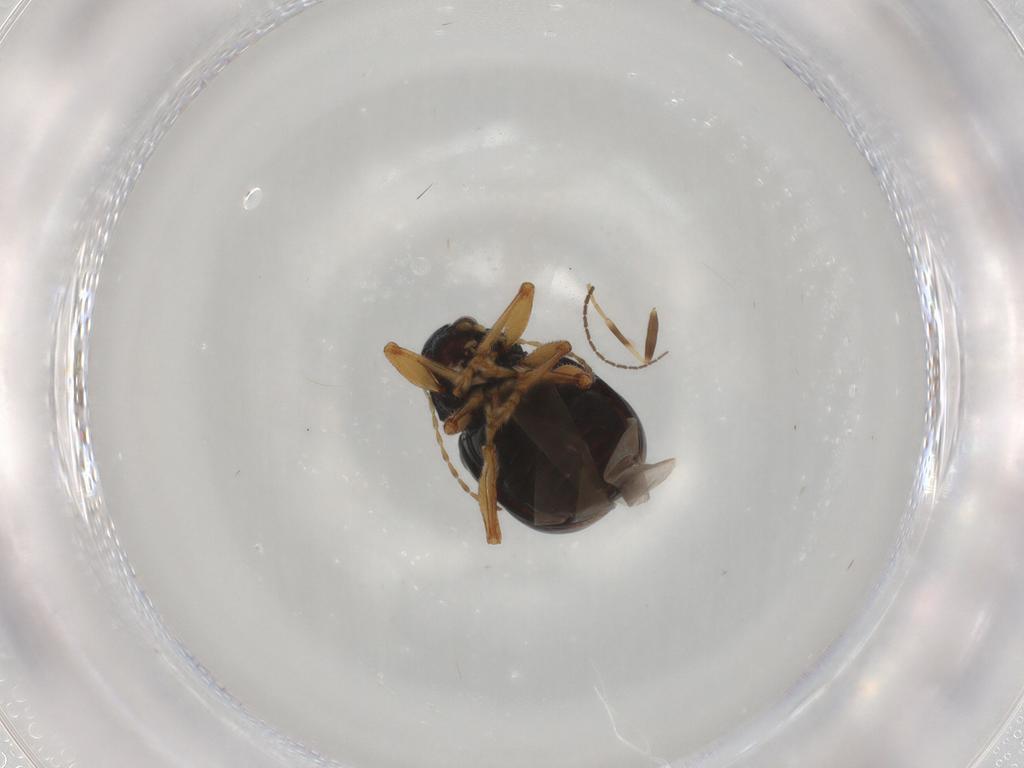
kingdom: Animalia
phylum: Arthropoda
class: Insecta
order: Coleoptera
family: Chrysomelidae
